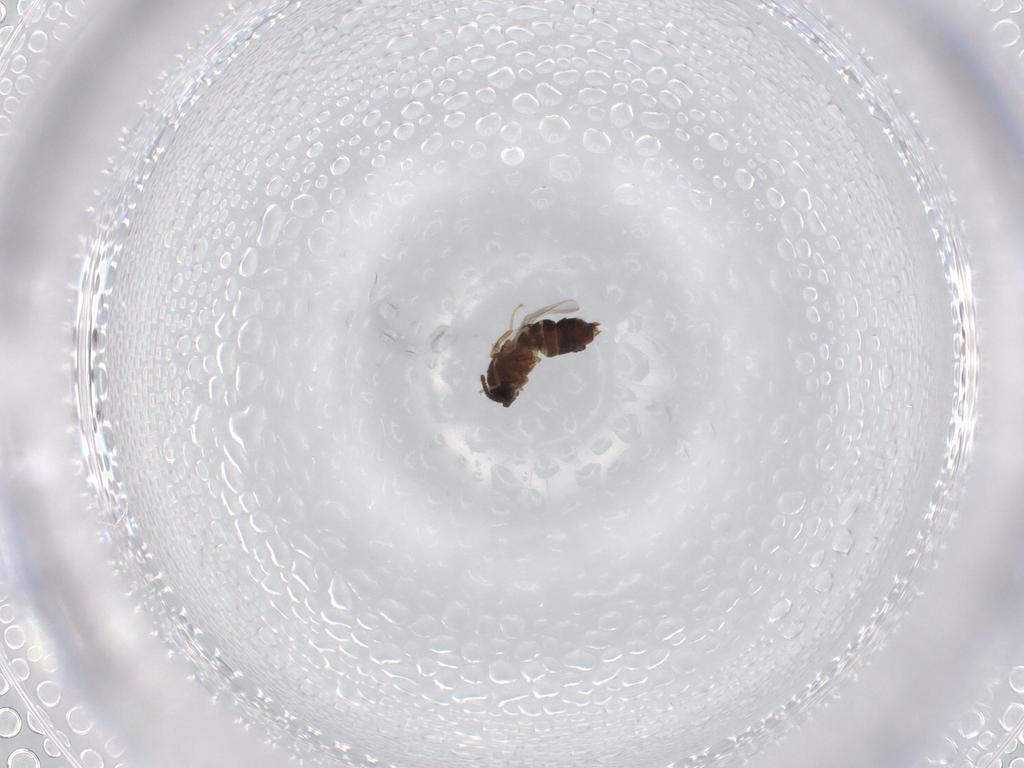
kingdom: Animalia
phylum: Arthropoda
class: Insecta
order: Diptera
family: Scatopsidae
